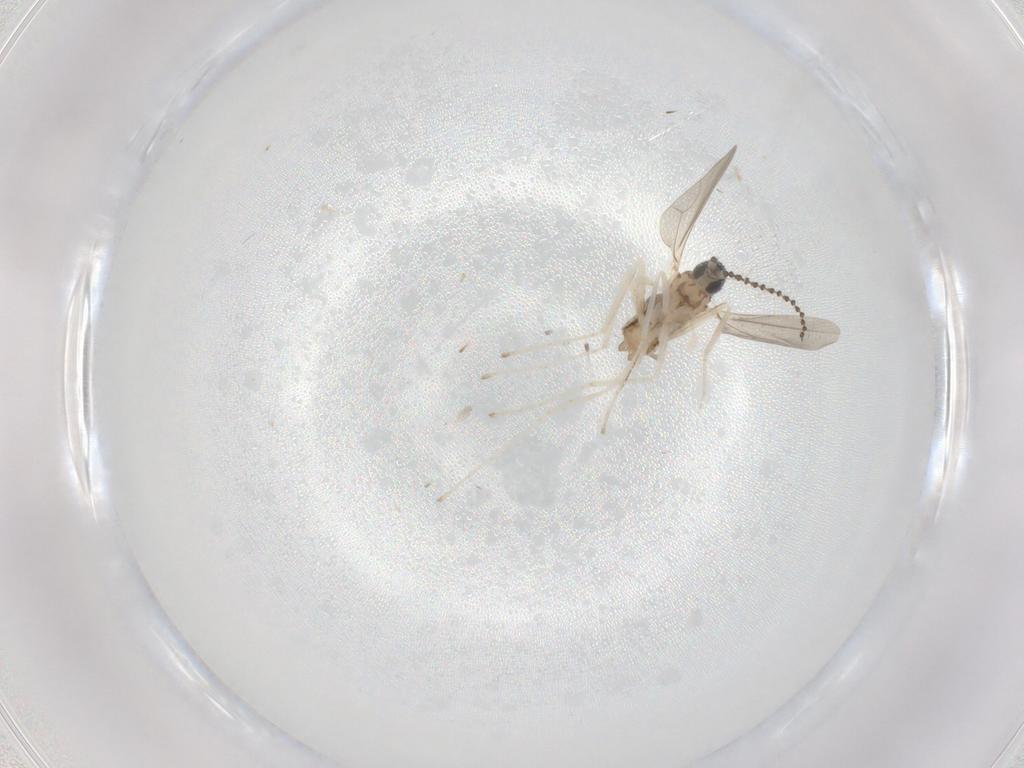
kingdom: Animalia
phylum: Arthropoda
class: Insecta
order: Diptera
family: Dolichopodidae
